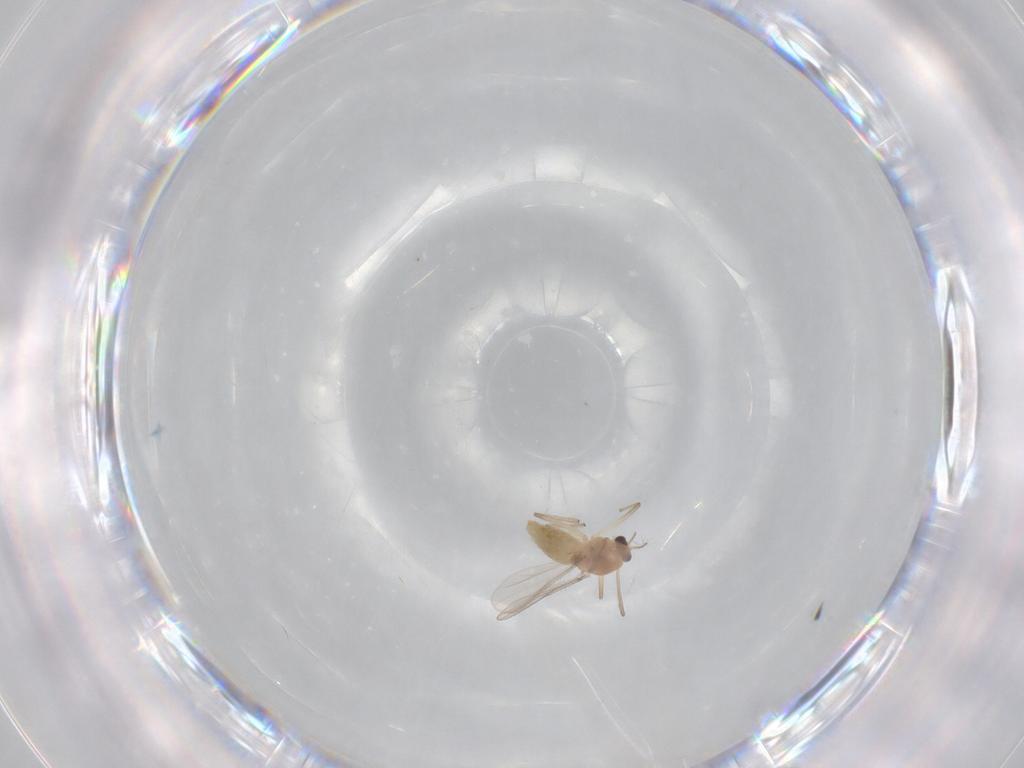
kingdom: Animalia
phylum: Arthropoda
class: Insecta
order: Diptera
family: Chironomidae
